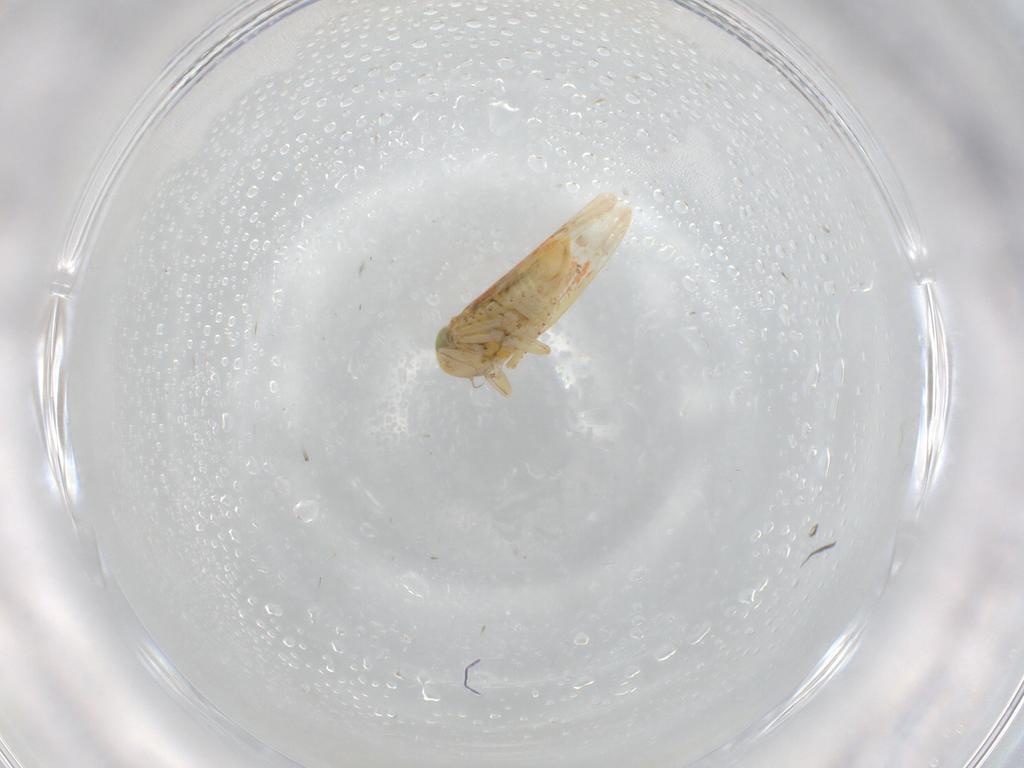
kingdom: Animalia
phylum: Arthropoda
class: Insecta
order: Hemiptera
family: Cicadellidae
